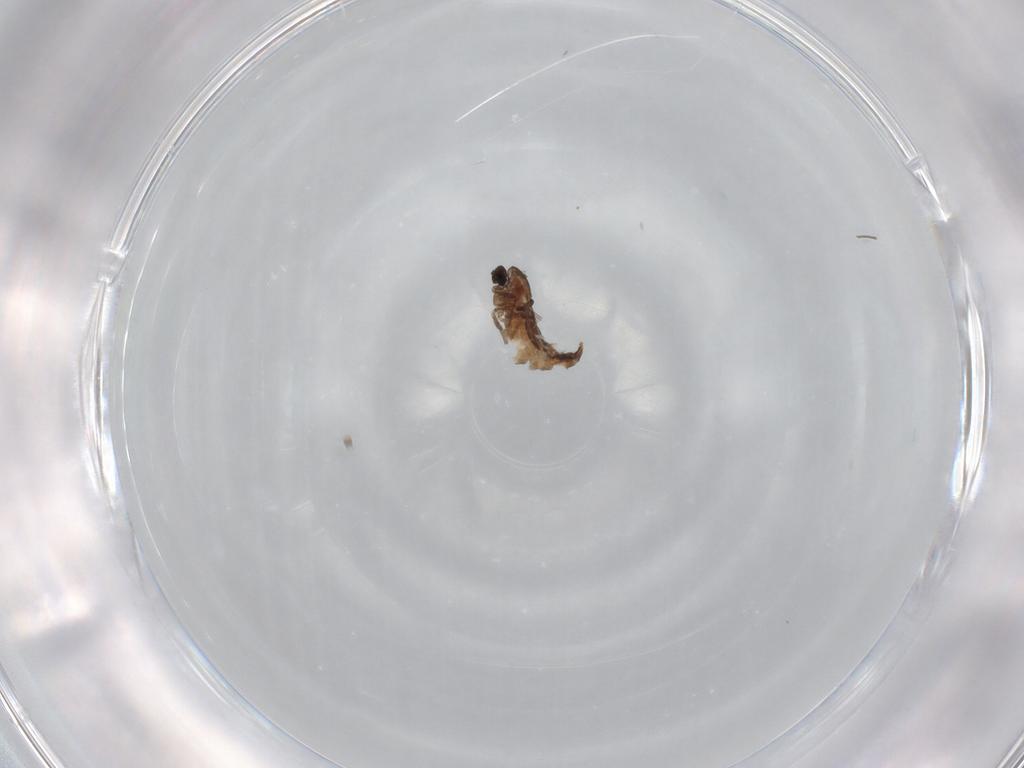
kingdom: Animalia
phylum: Arthropoda
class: Insecta
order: Diptera
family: Chironomidae
